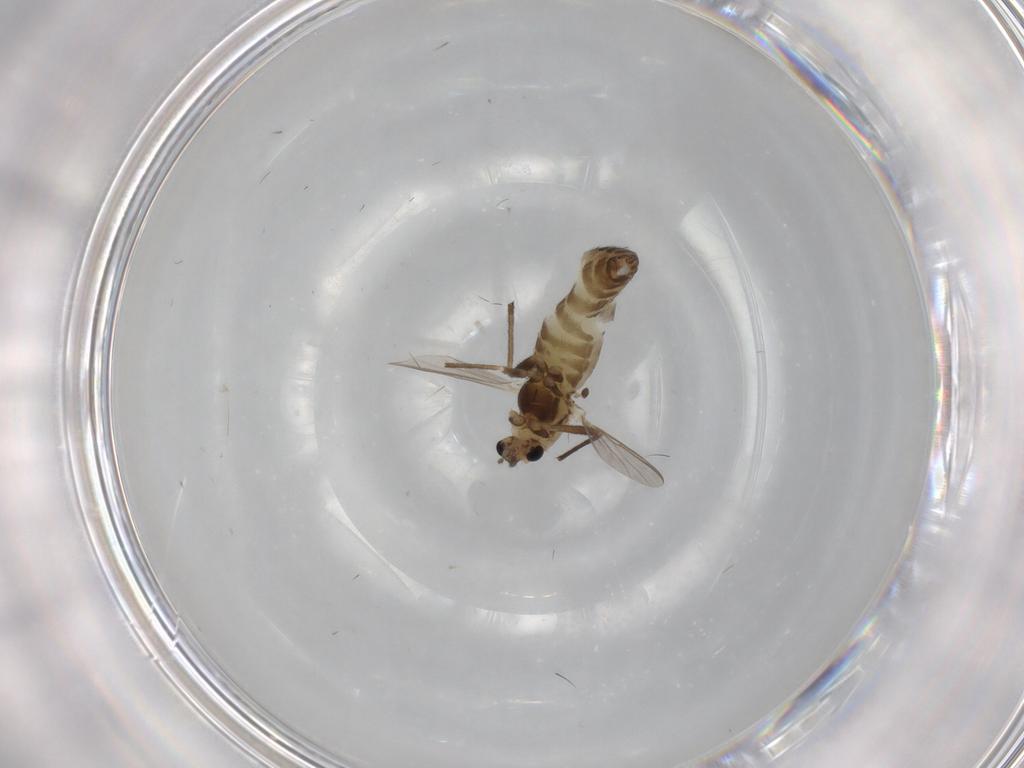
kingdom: Animalia
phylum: Arthropoda
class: Insecta
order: Diptera
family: Chironomidae
